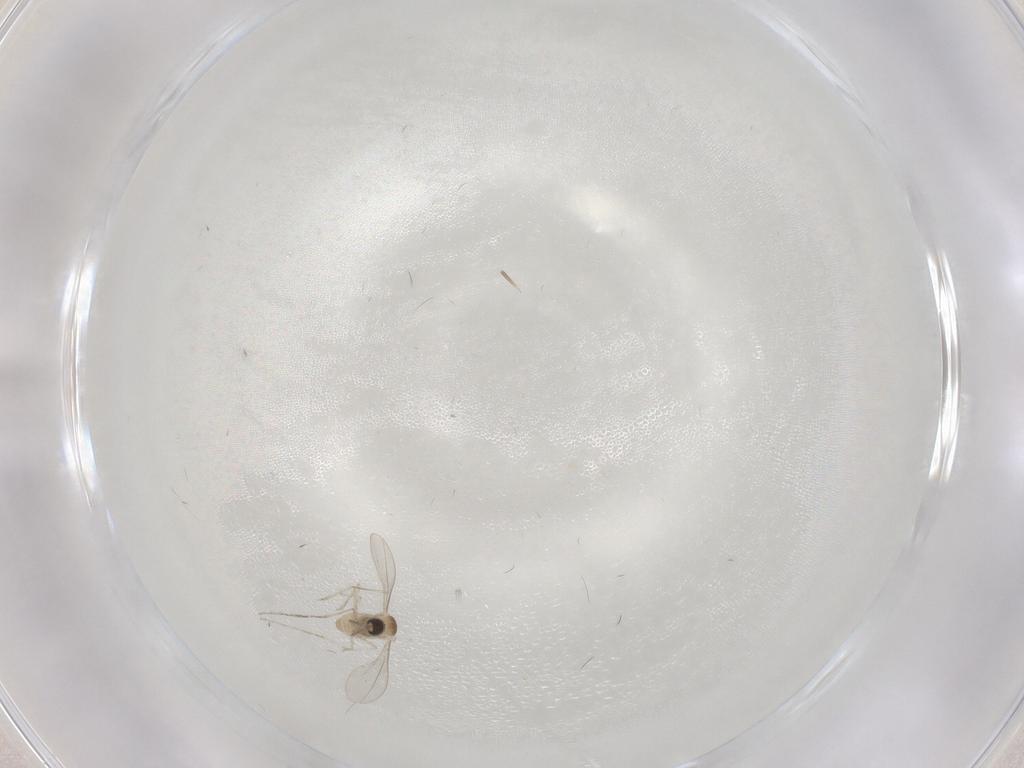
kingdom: Animalia
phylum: Arthropoda
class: Insecta
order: Diptera
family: Cecidomyiidae
